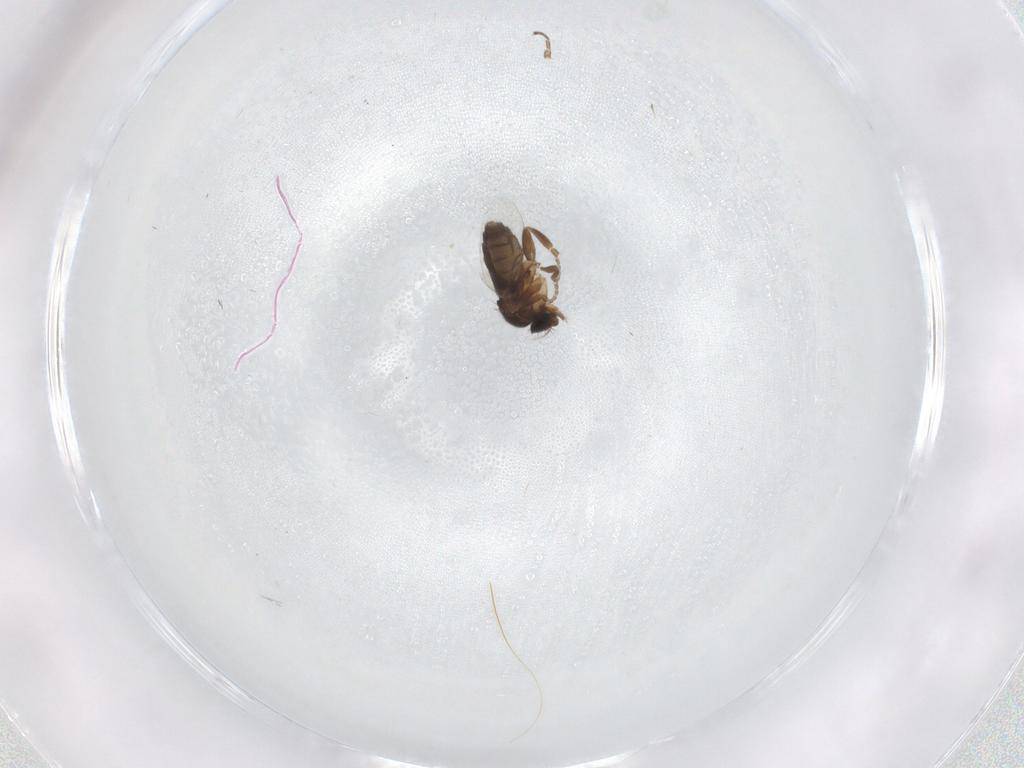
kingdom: Animalia
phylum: Arthropoda
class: Insecta
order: Diptera
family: Phoridae
